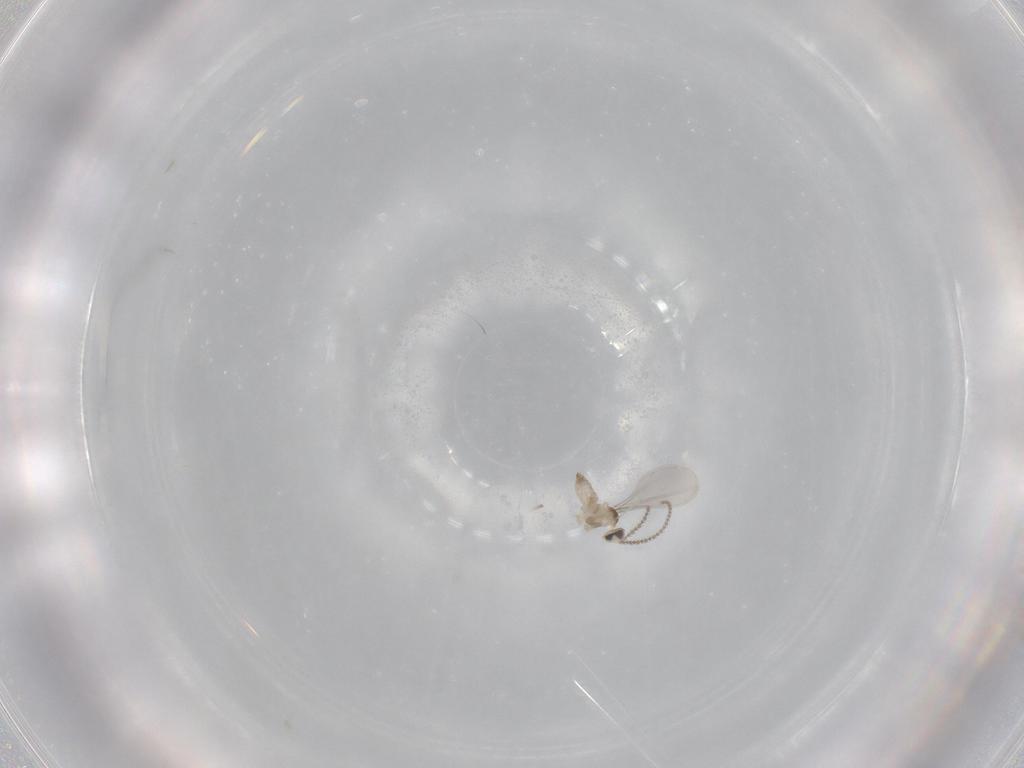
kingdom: Animalia
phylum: Arthropoda
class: Insecta
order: Diptera
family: Cecidomyiidae
